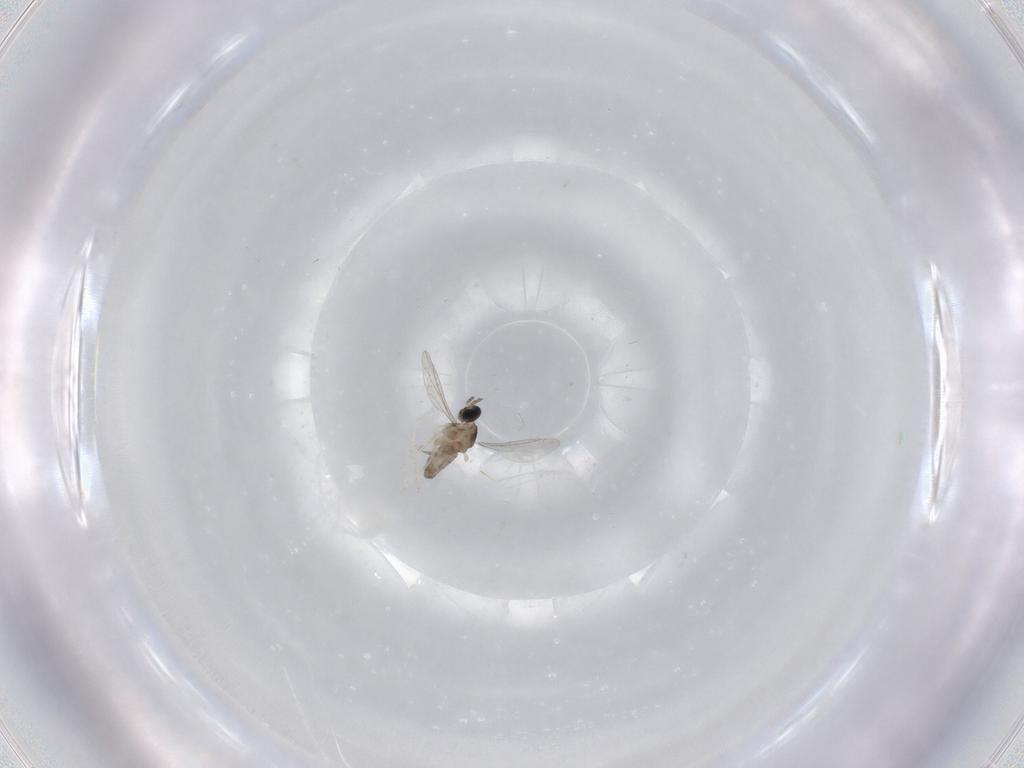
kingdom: Animalia
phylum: Arthropoda
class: Insecta
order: Diptera
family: Cecidomyiidae
